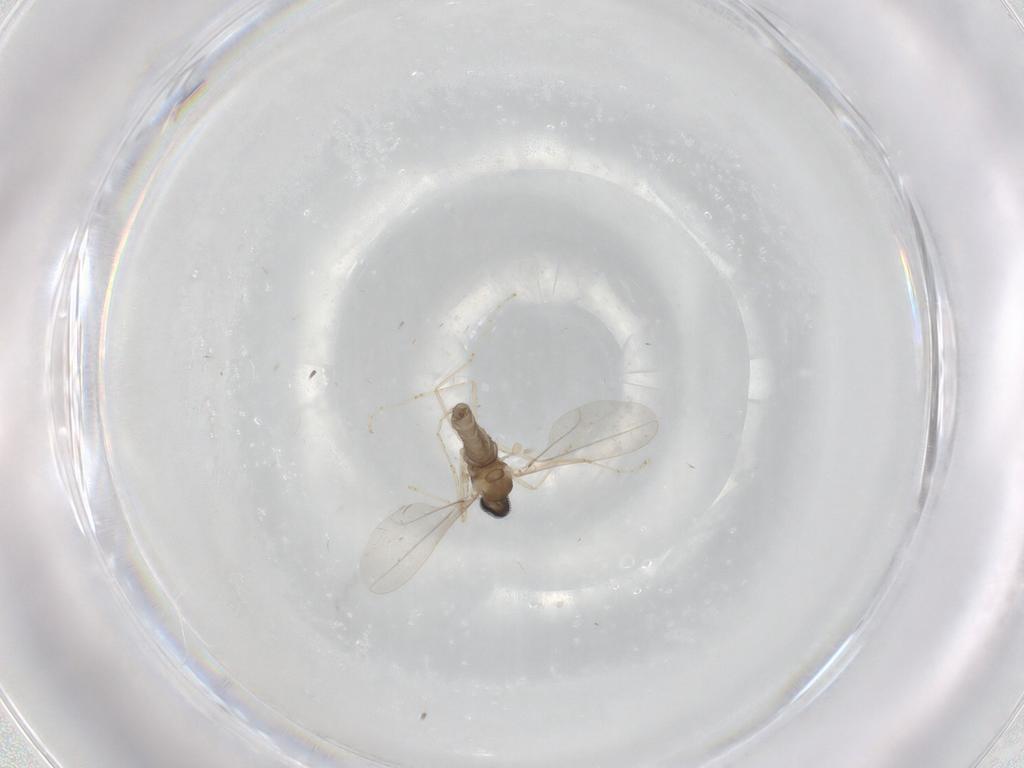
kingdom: Animalia
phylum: Arthropoda
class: Insecta
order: Diptera
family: Cecidomyiidae
